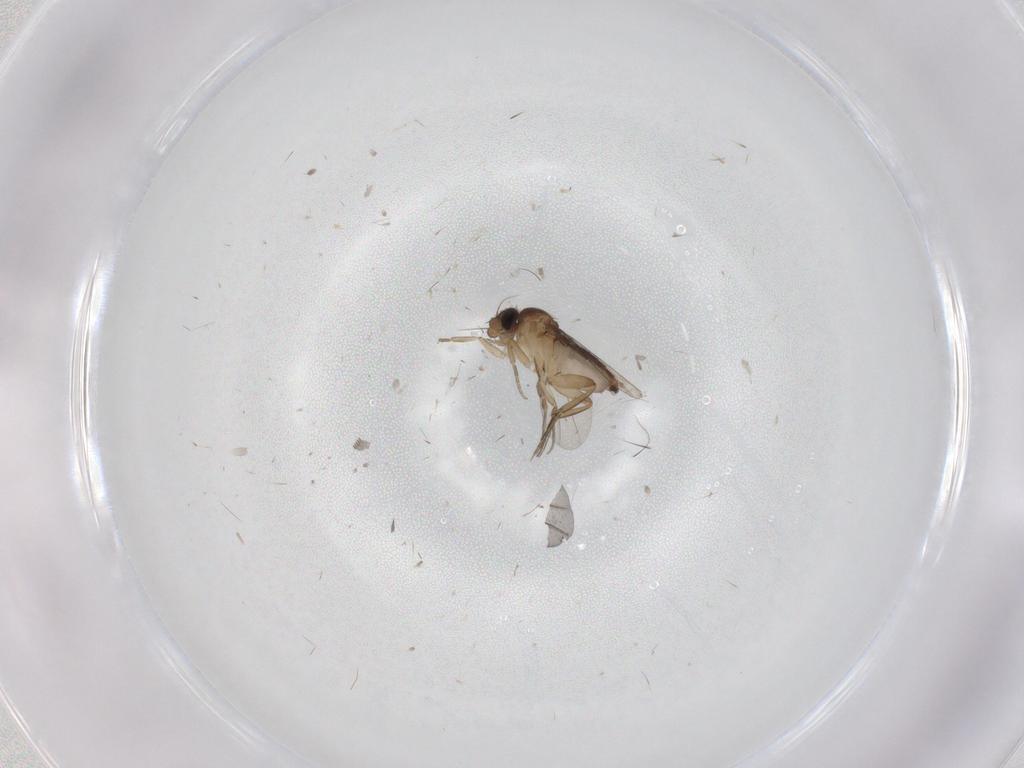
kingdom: Animalia
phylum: Arthropoda
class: Insecta
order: Diptera
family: Phoridae
